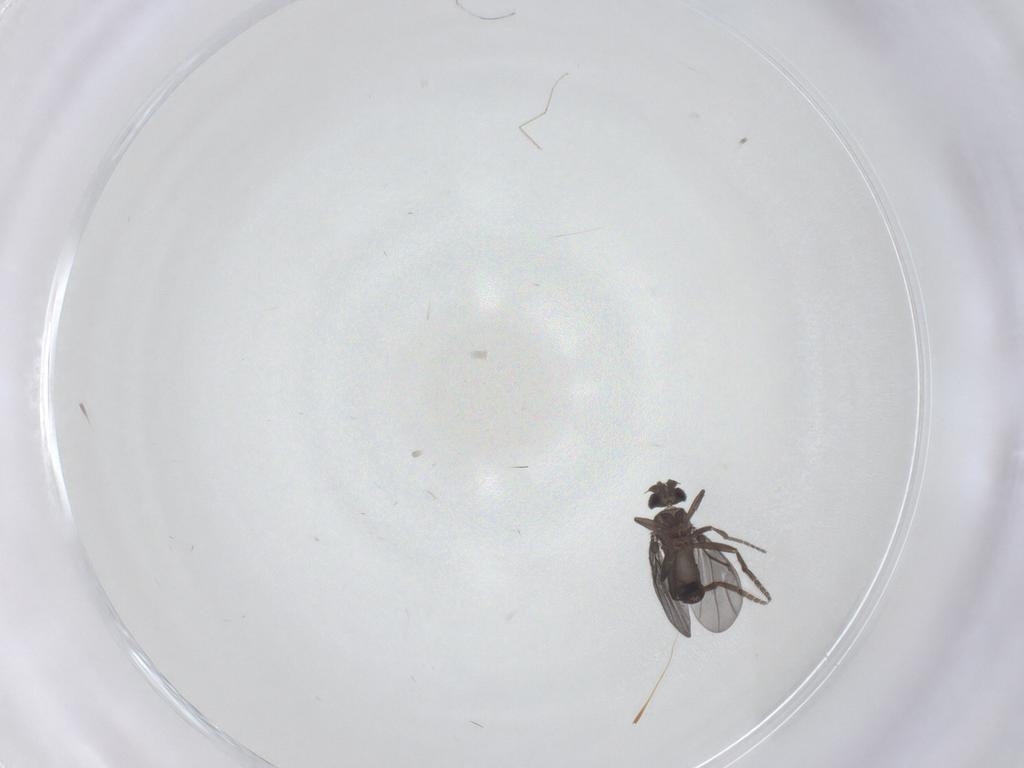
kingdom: Animalia
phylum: Arthropoda
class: Insecta
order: Diptera
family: Phoridae
